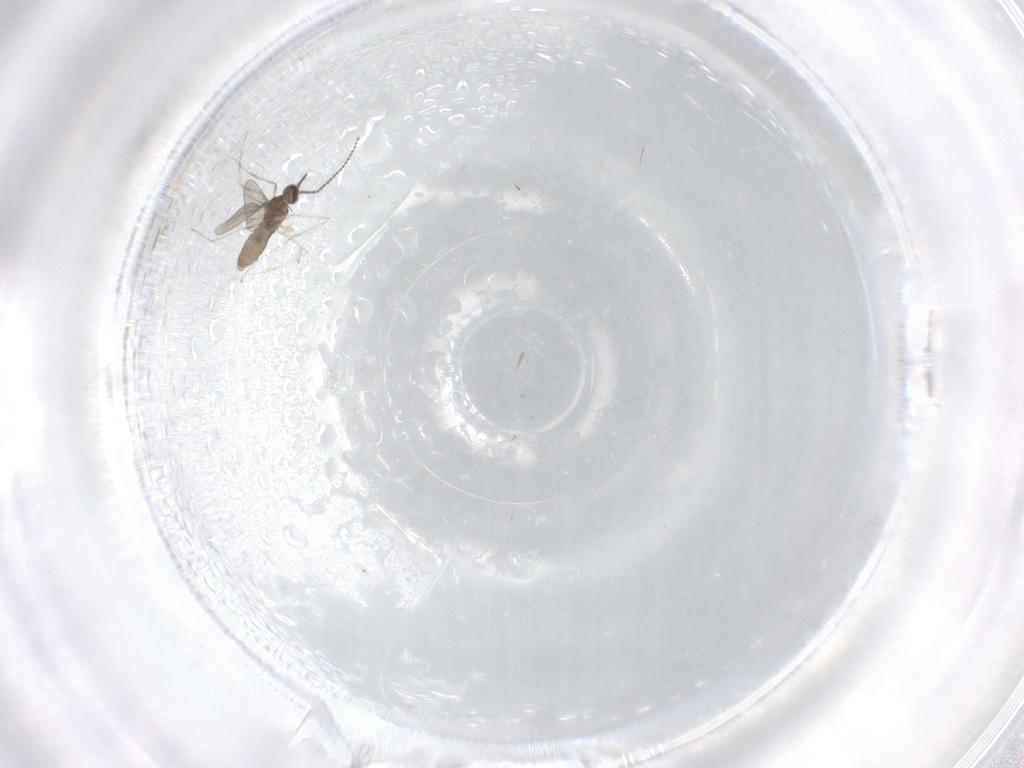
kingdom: Animalia
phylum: Arthropoda
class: Insecta
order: Diptera
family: Cecidomyiidae
